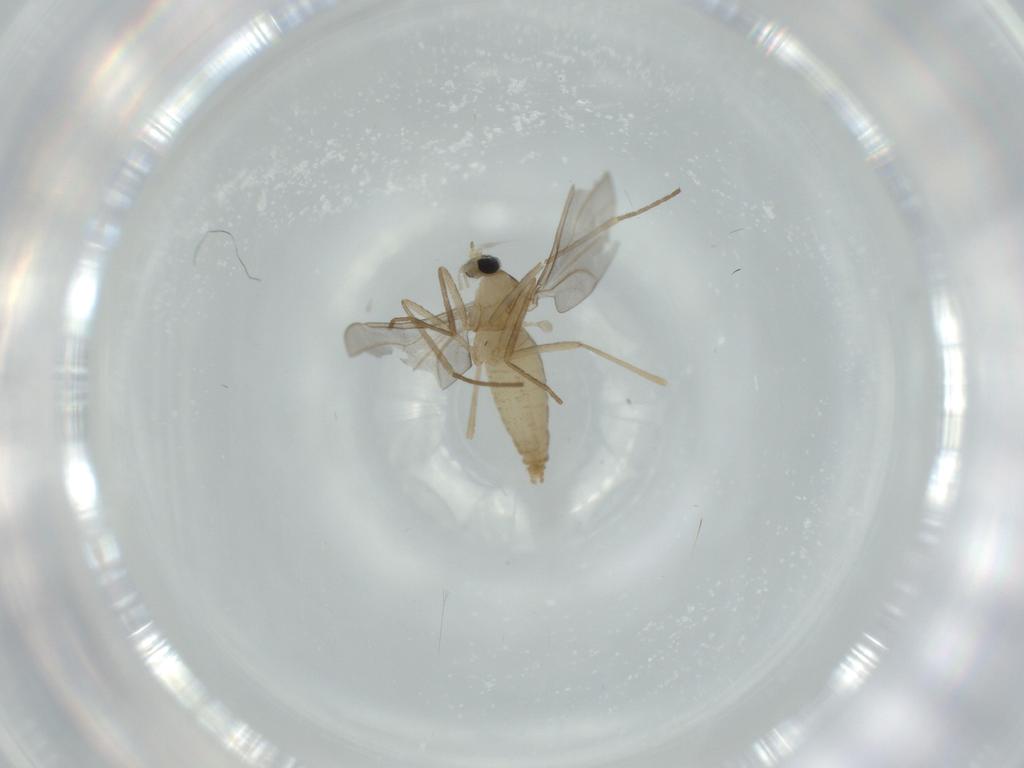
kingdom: Animalia
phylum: Arthropoda
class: Insecta
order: Diptera
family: Cecidomyiidae
